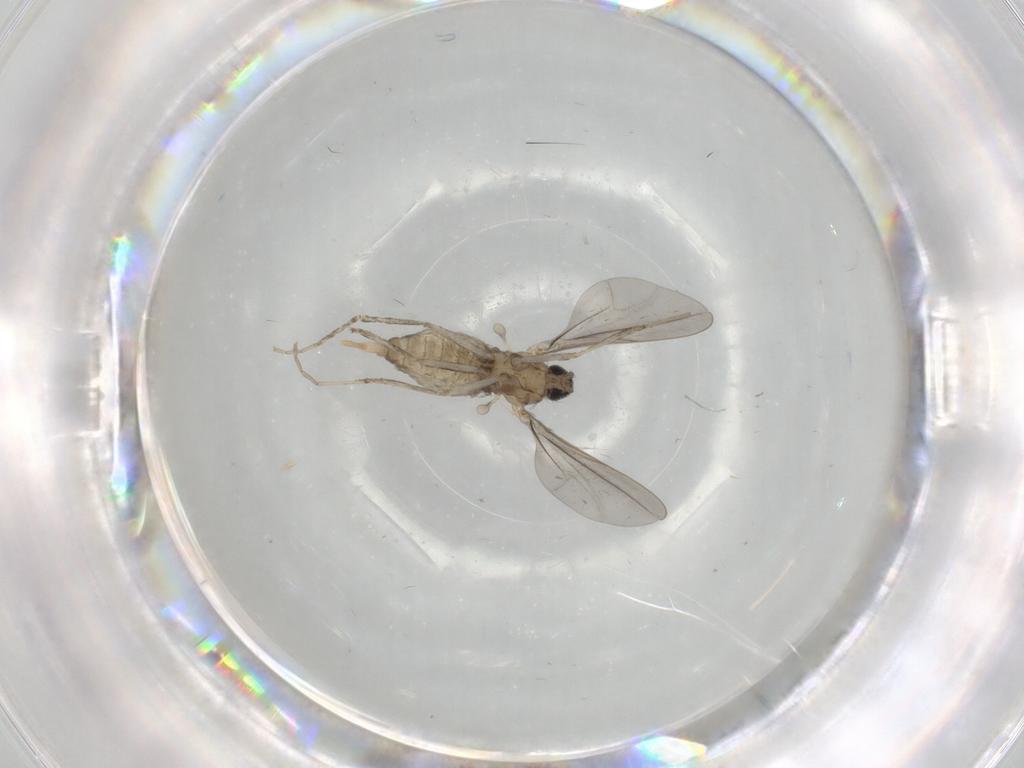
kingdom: Animalia
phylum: Arthropoda
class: Insecta
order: Diptera
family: Cecidomyiidae
